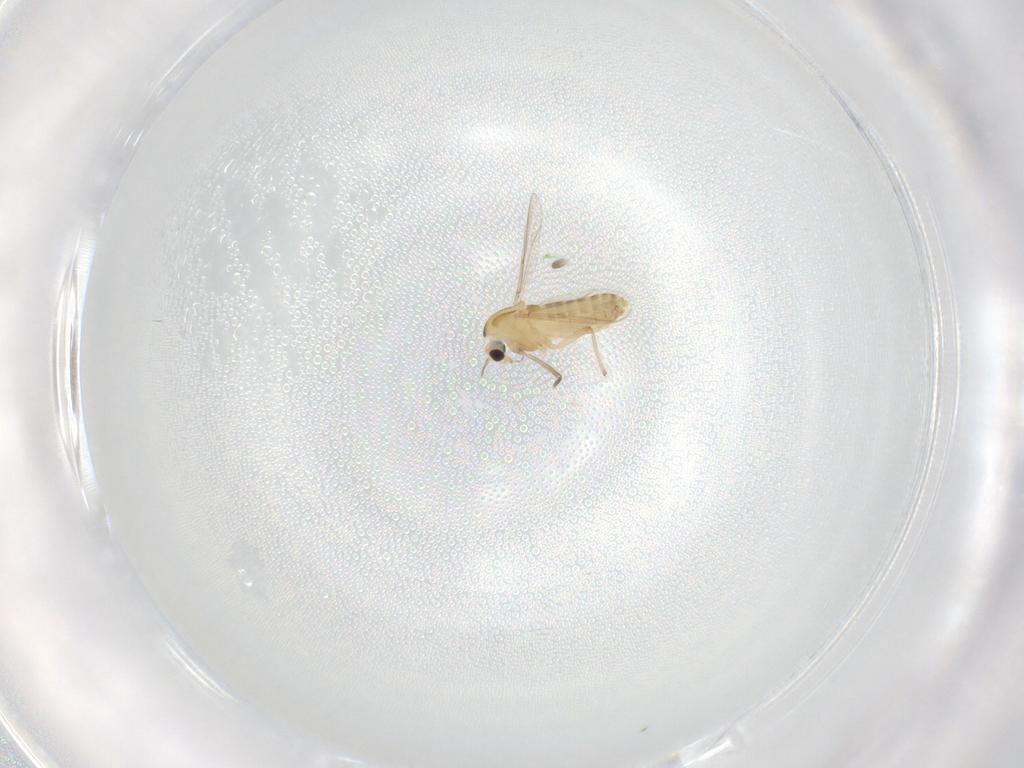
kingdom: Animalia
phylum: Arthropoda
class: Insecta
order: Diptera
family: Chironomidae
